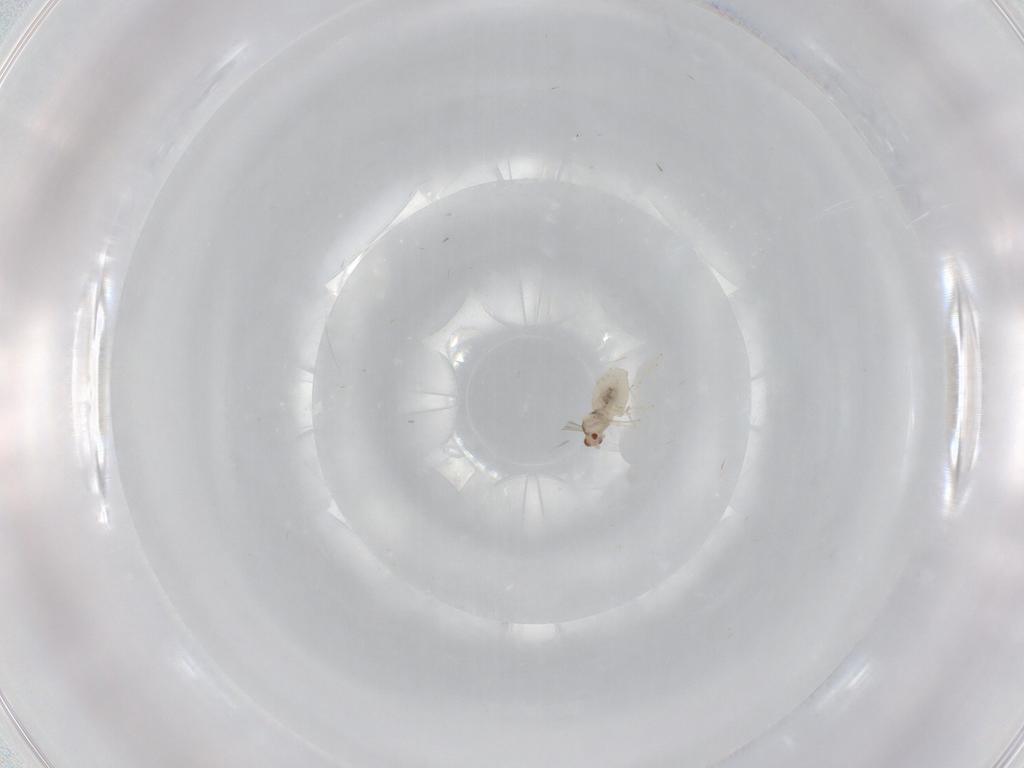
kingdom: Animalia
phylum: Arthropoda
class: Insecta
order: Diptera
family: Cecidomyiidae
